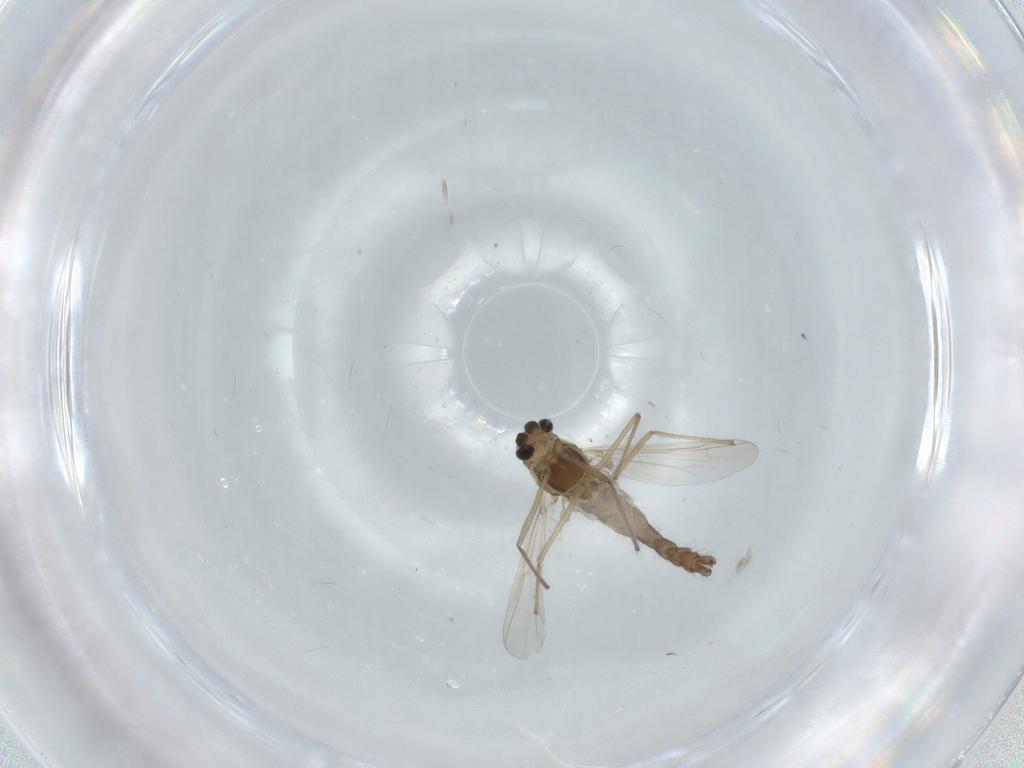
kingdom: Animalia
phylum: Arthropoda
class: Insecta
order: Diptera
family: Chironomidae
